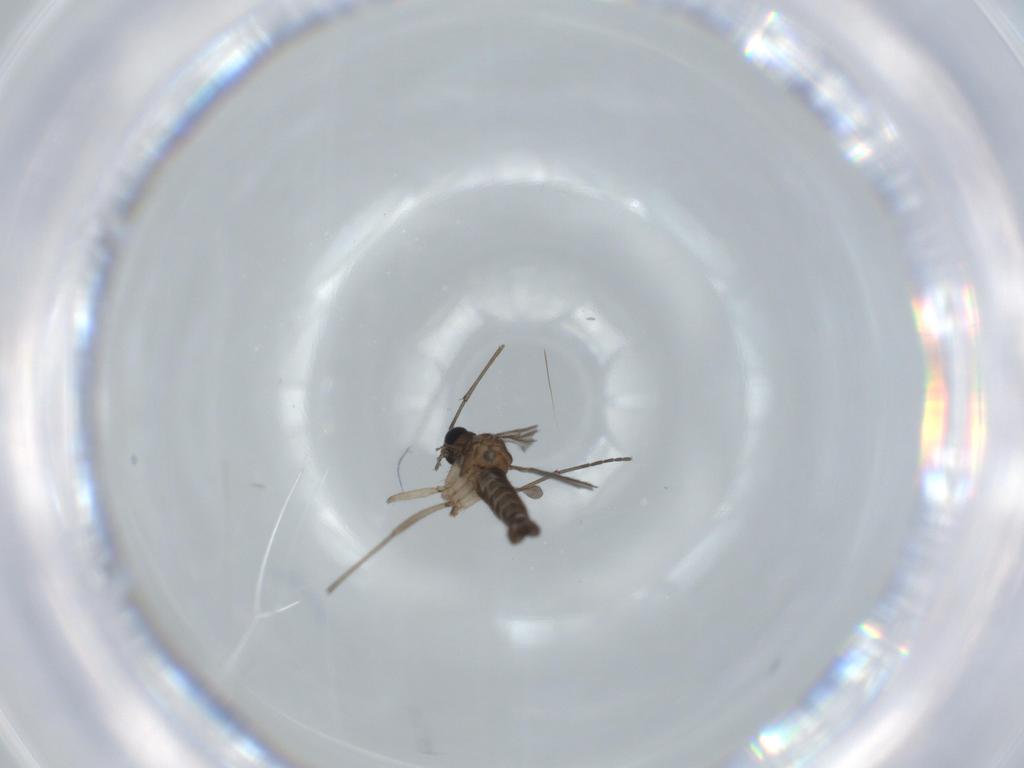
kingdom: Animalia
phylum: Arthropoda
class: Insecta
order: Diptera
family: Sciaridae
